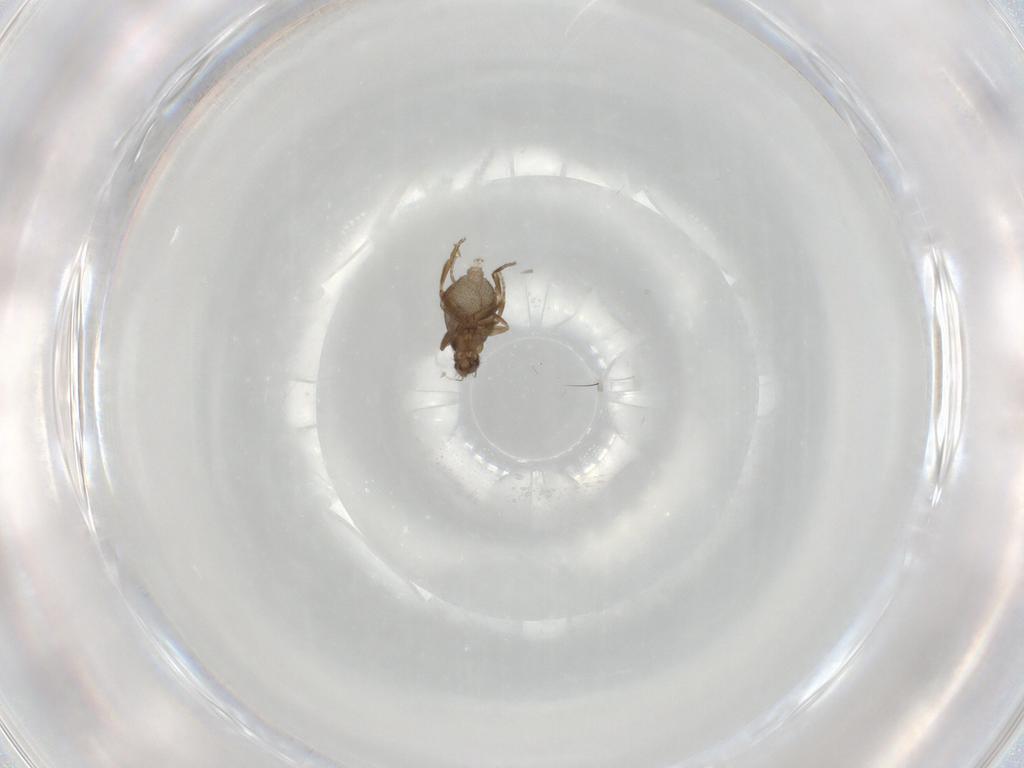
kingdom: Animalia
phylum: Arthropoda
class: Insecta
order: Diptera
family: Phoridae
